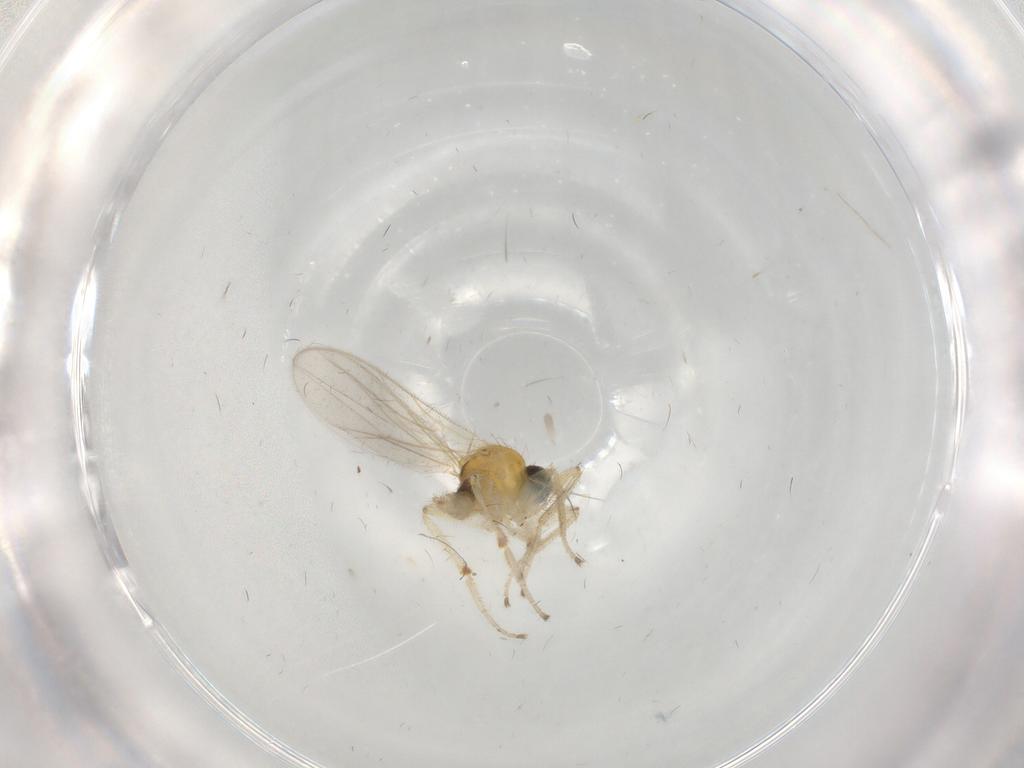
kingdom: Animalia
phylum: Arthropoda
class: Insecta
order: Diptera
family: Hybotidae
